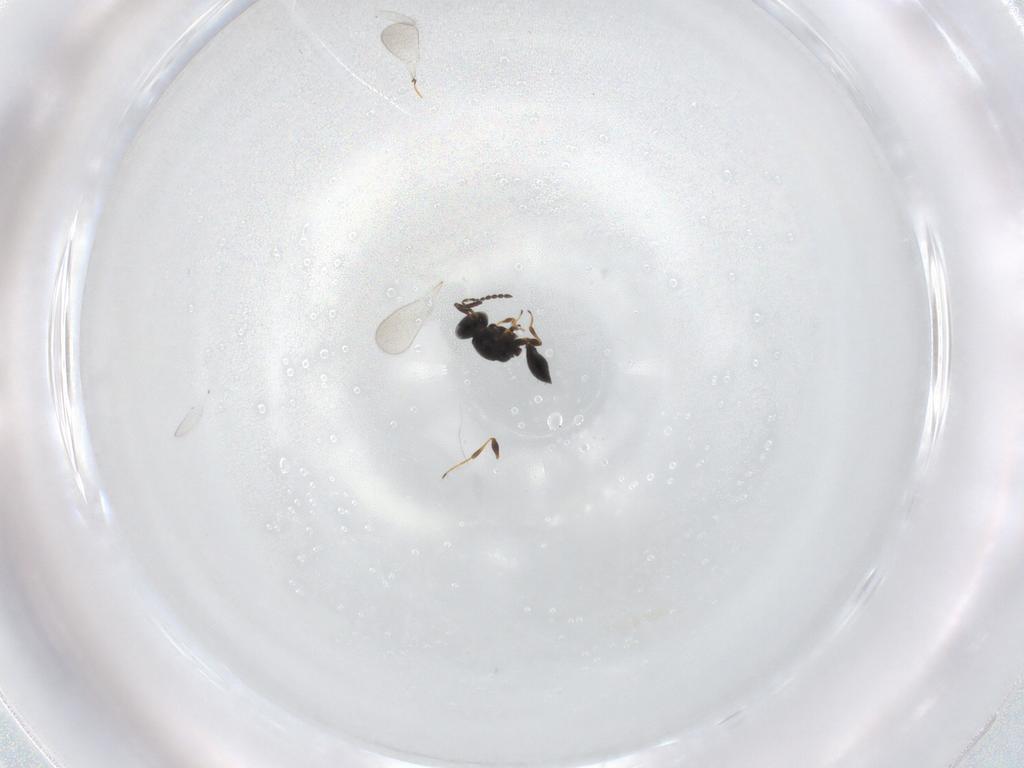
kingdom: Animalia
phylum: Arthropoda
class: Insecta
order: Hymenoptera
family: Platygastridae
